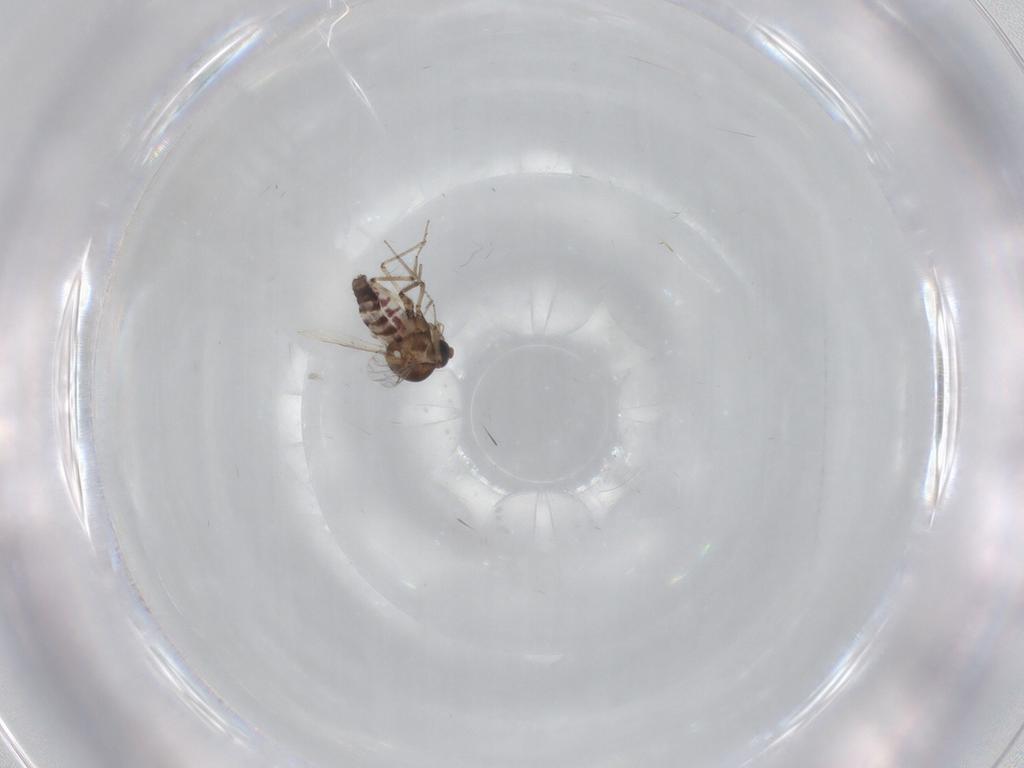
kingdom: Animalia
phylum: Arthropoda
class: Insecta
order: Diptera
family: Ceratopogonidae
